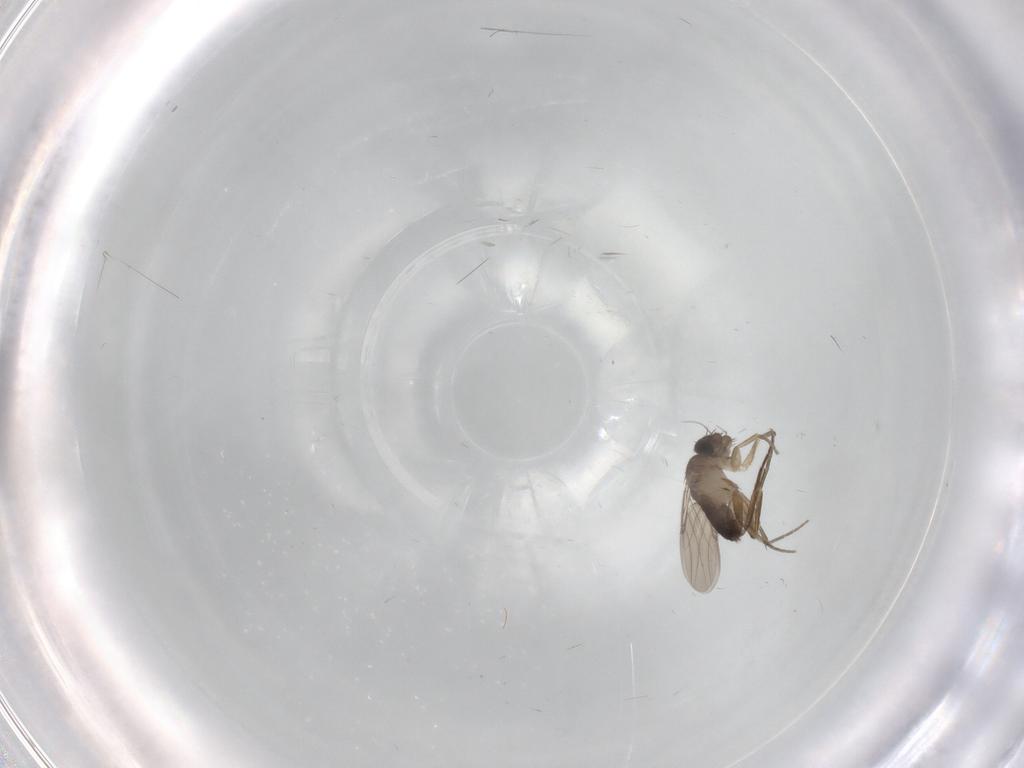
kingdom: Animalia
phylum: Arthropoda
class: Insecta
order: Diptera
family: Phoridae
